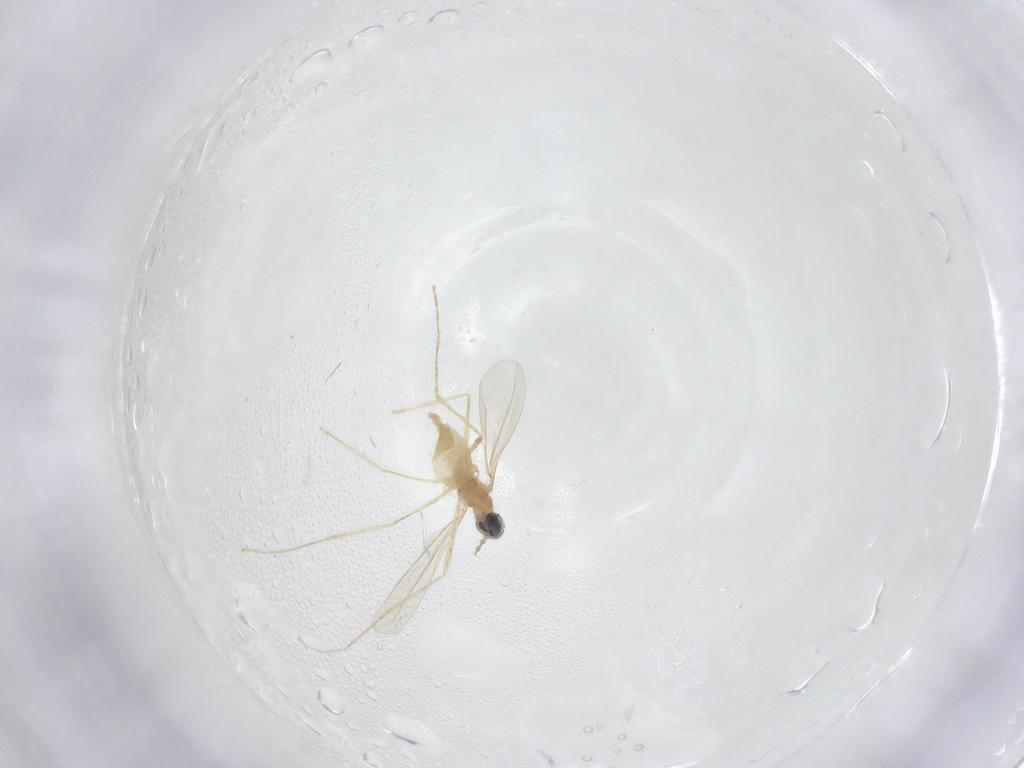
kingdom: Animalia
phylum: Arthropoda
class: Insecta
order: Diptera
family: Cecidomyiidae
